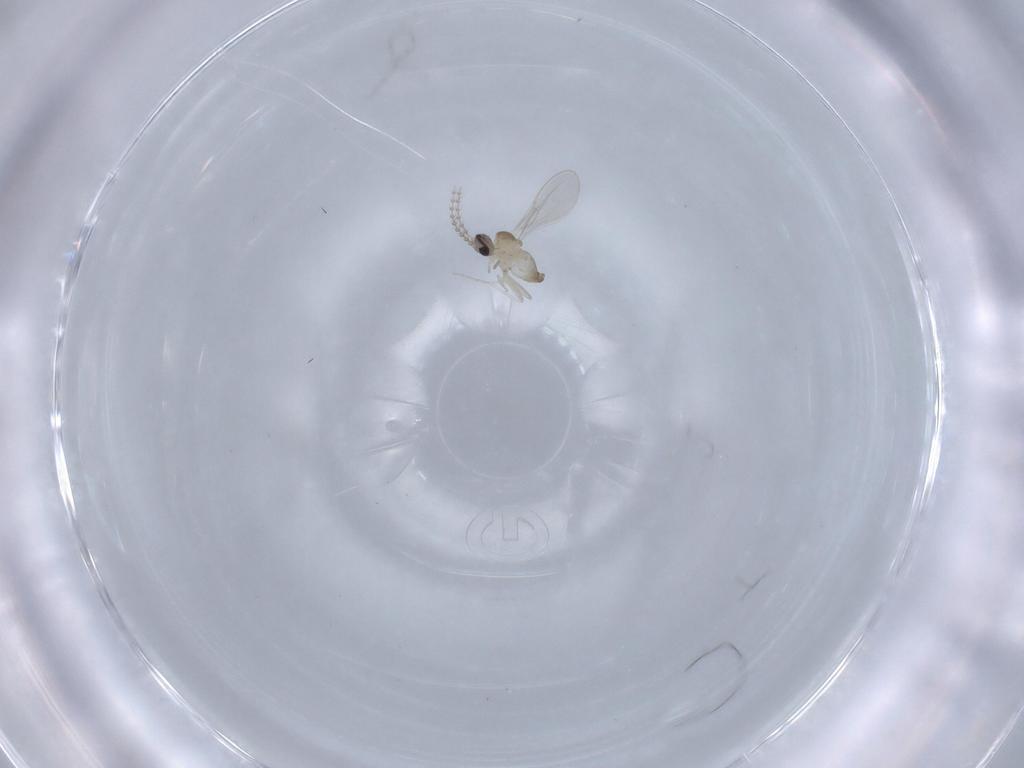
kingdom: Animalia
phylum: Arthropoda
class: Insecta
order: Diptera
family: Cecidomyiidae
